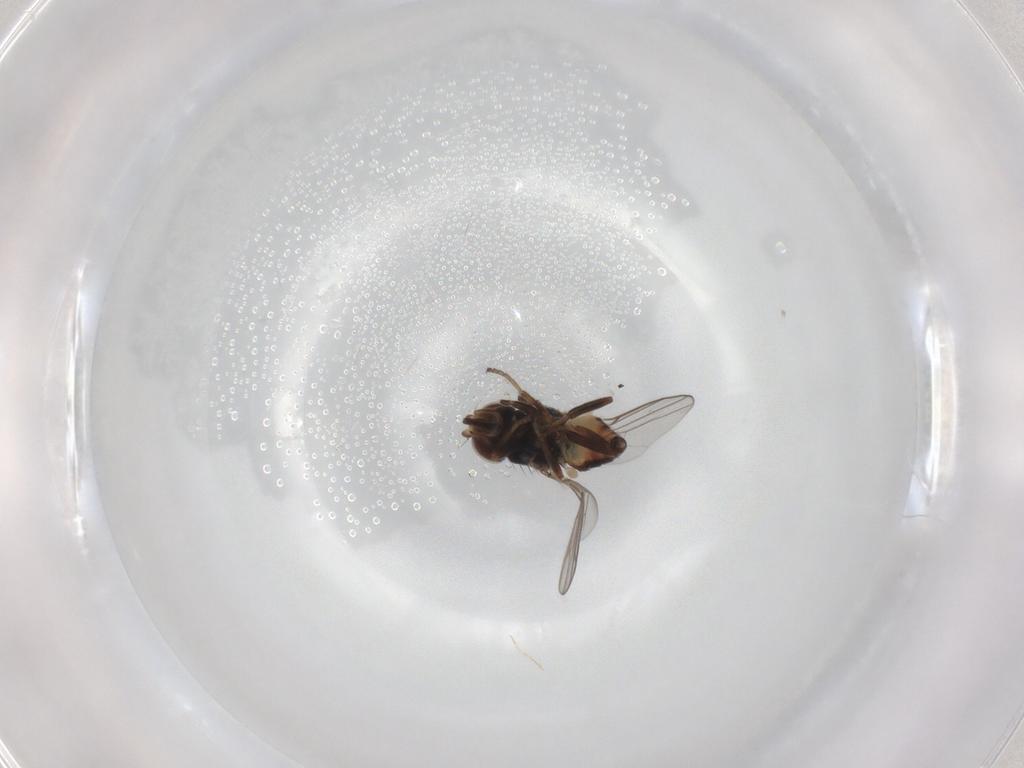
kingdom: Animalia
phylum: Arthropoda
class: Insecta
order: Diptera
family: Chloropidae
